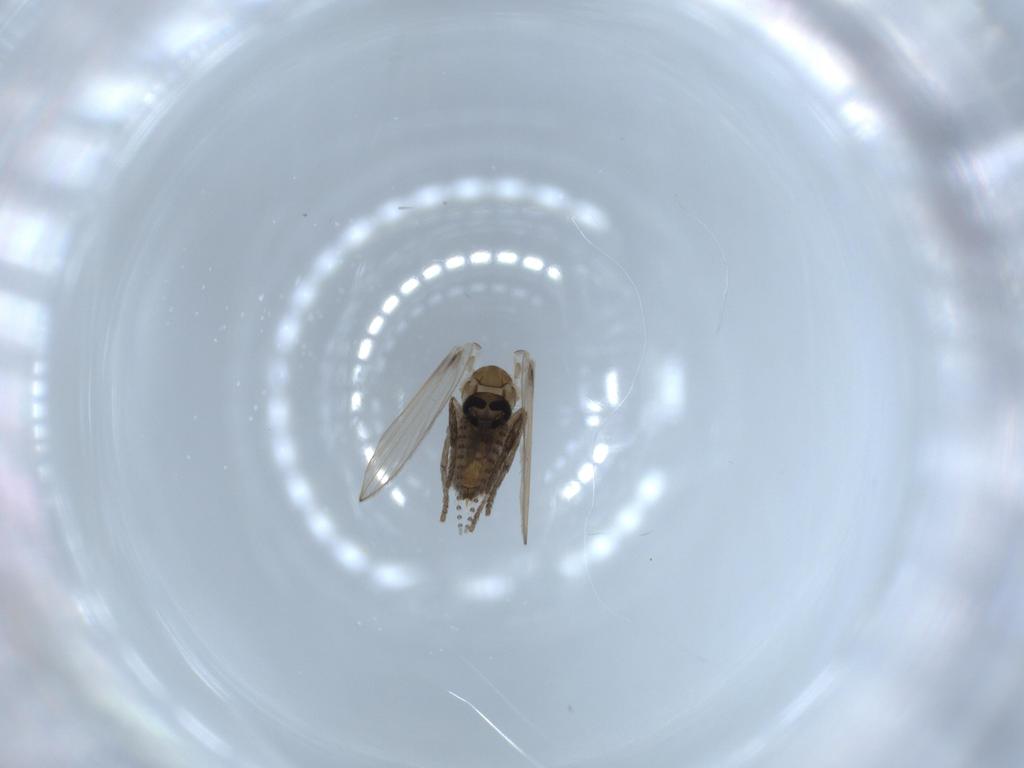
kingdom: Animalia
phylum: Arthropoda
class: Insecta
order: Diptera
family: Psychodidae
